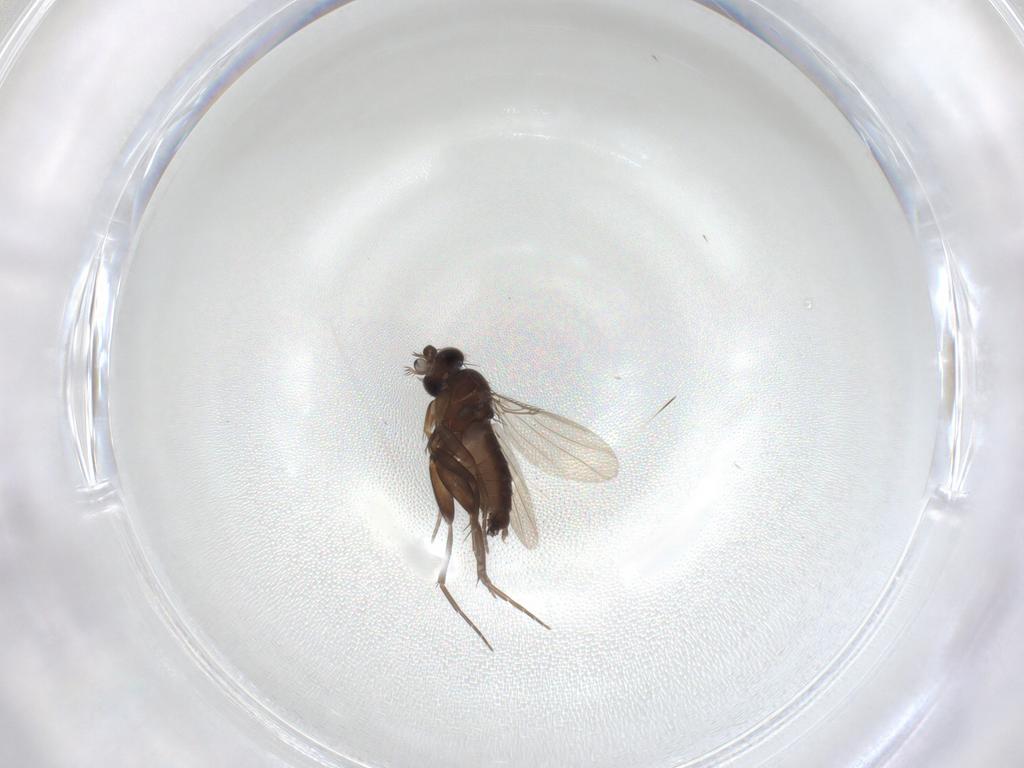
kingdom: Animalia
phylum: Arthropoda
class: Insecta
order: Diptera
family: Phoridae
